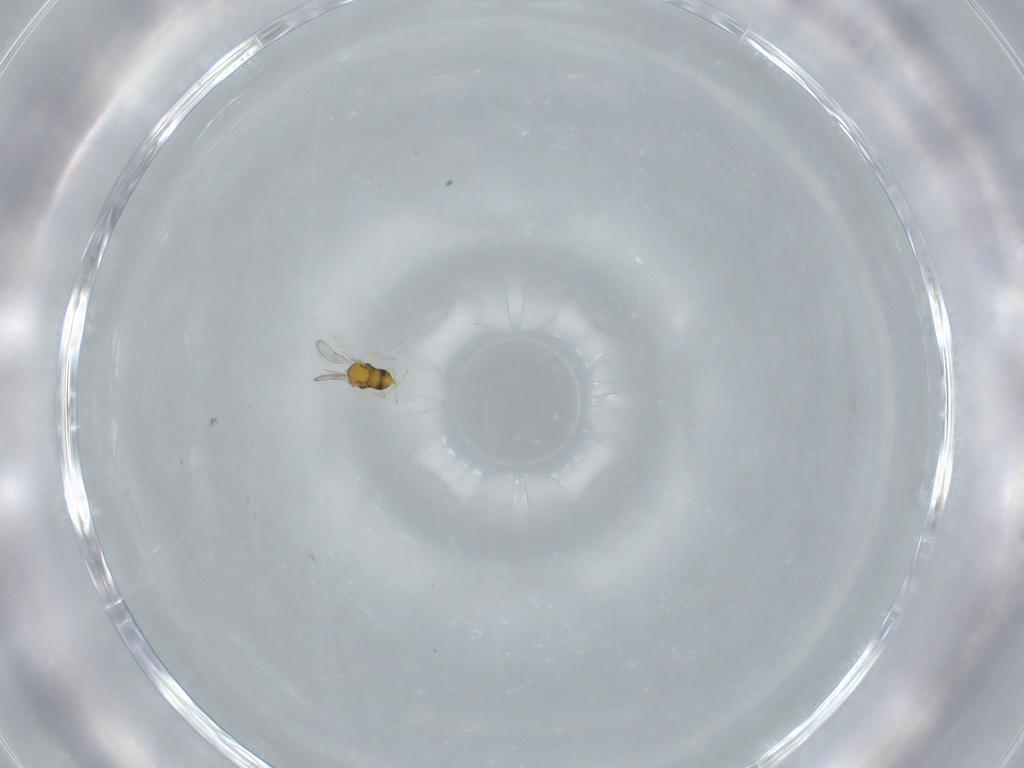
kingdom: Animalia
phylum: Arthropoda
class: Insecta
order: Hymenoptera
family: Aphelinidae
